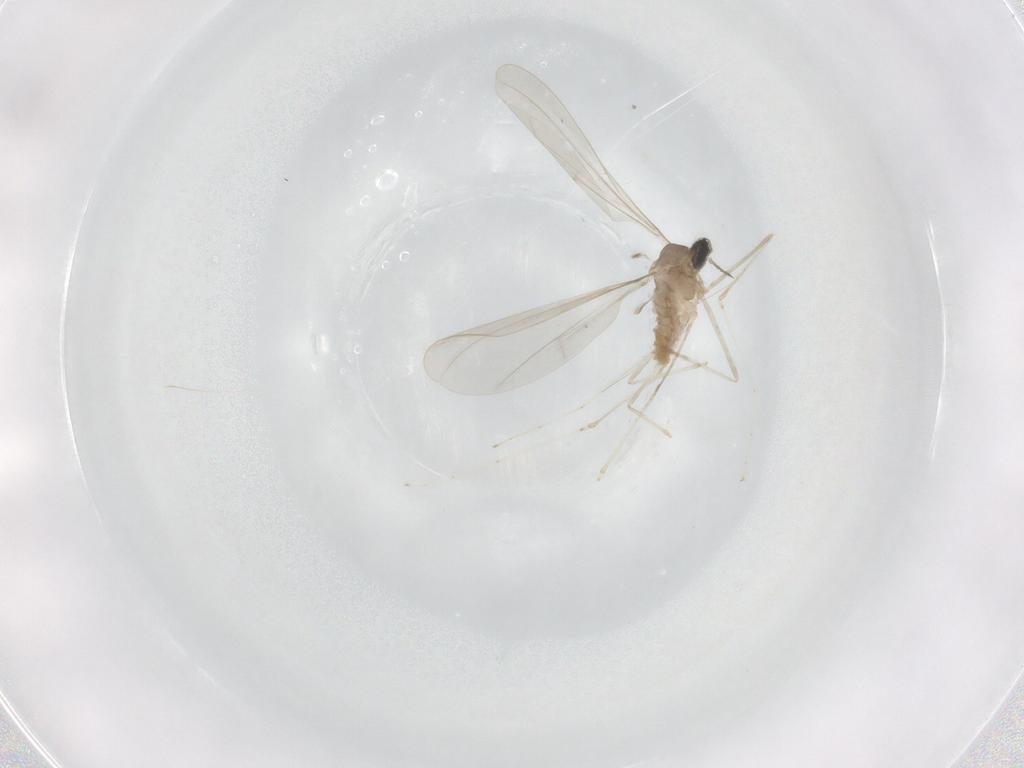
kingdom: Animalia
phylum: Arthropoda
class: Insecta
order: Diptera
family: Cecidomyiidae
